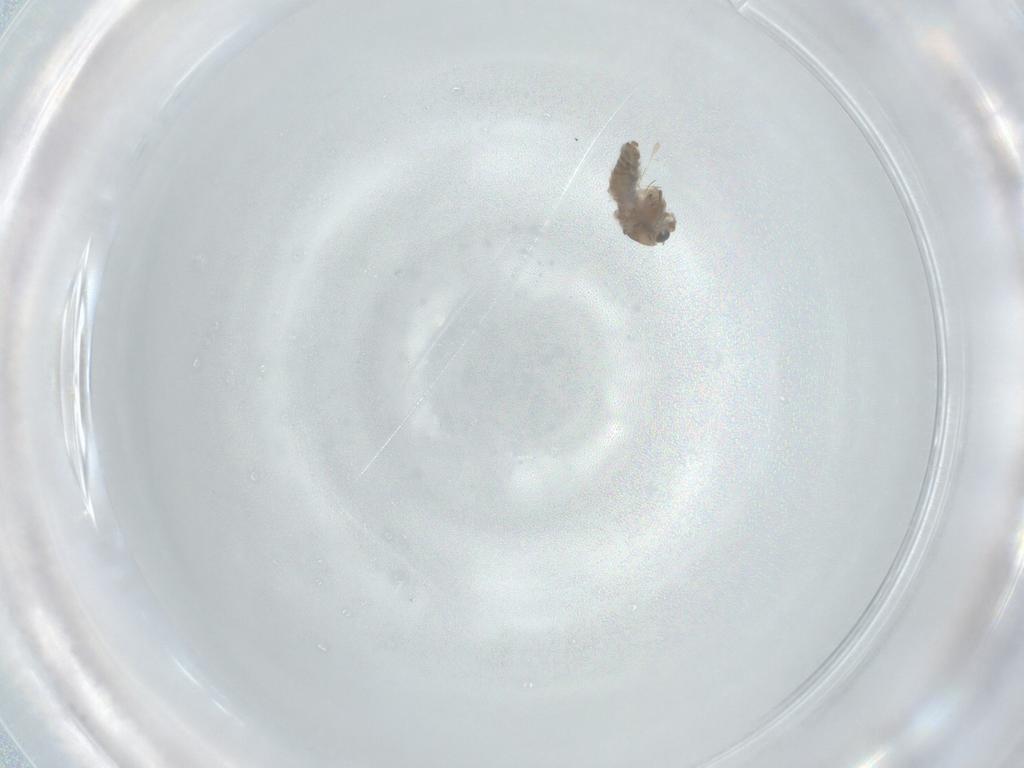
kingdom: Animalia
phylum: Arthropoda
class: Insecta
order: Diptera
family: Chironomidae
